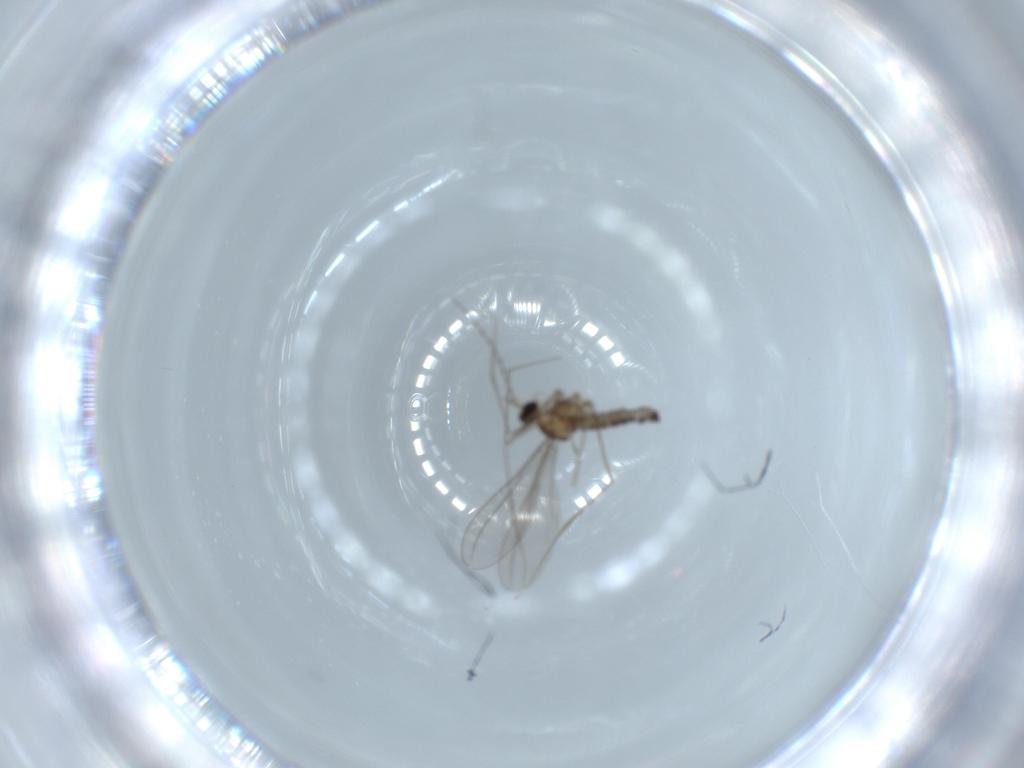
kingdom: Animalia
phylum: Arthropoda
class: Insecta
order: Diptera
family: Cecidomyiidae
